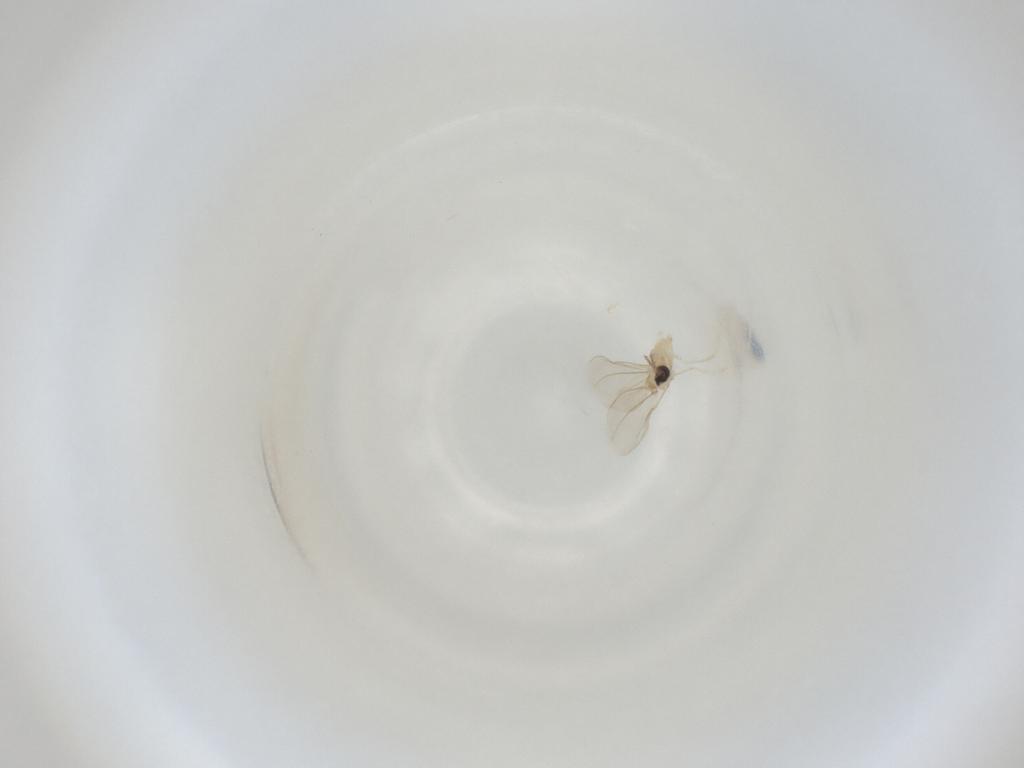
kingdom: Animalia
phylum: Arthropoda
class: Insecta
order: Diptera
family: Cecidomyiidae
